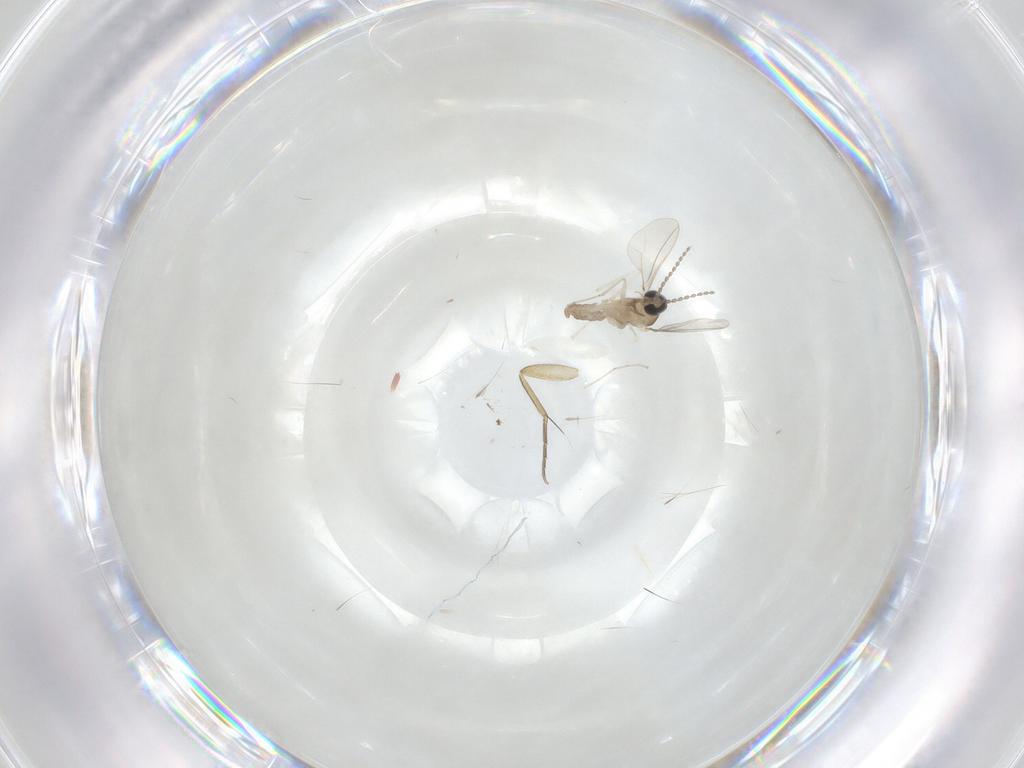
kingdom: Animalia
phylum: Arthropoda
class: Insecta
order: Diptera
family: Cecidomyiidae
